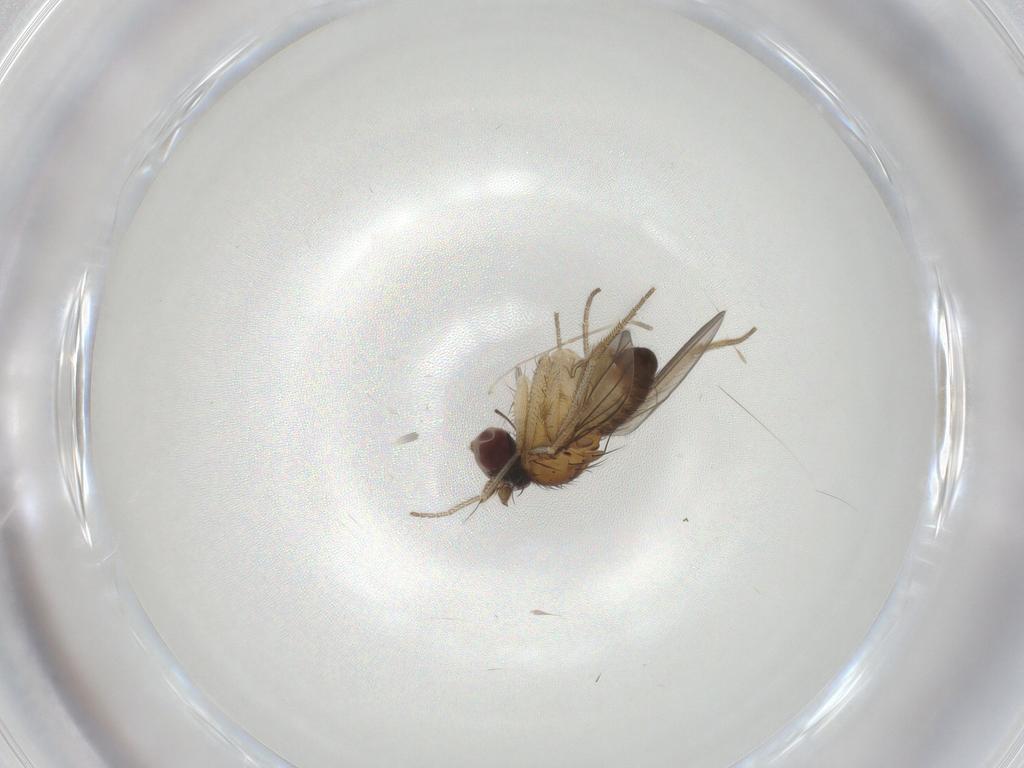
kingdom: Animalia
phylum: Arthropoda
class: Insecta
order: Diptera
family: Dolichopodidae
